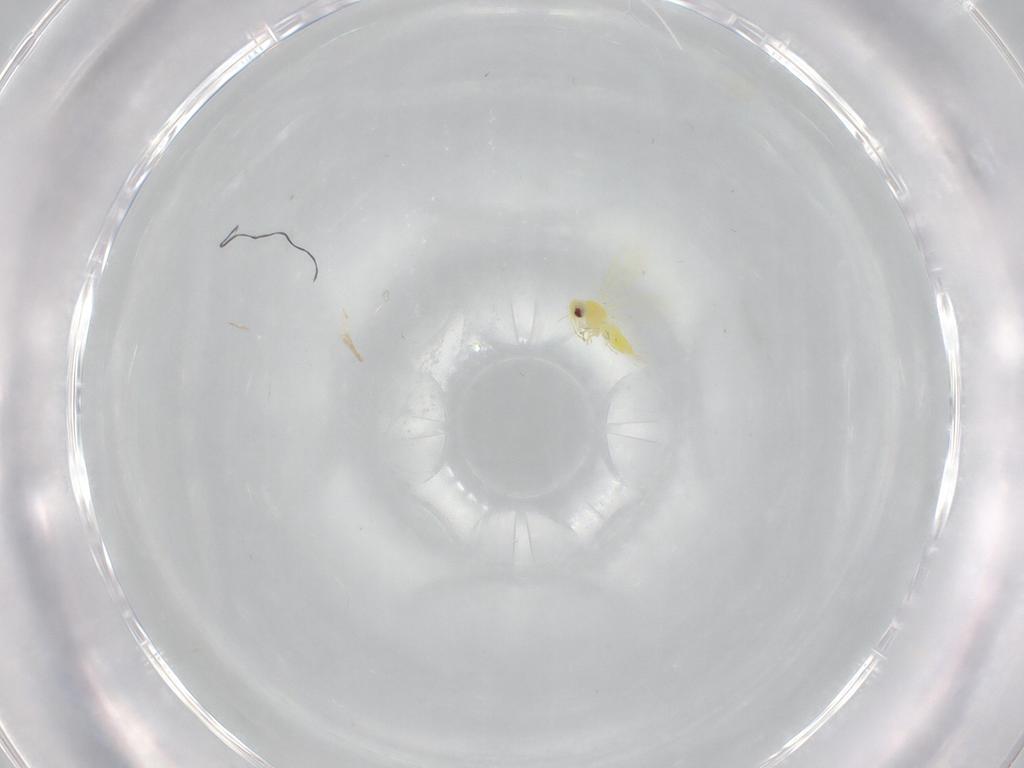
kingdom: Animalia
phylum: Arthropoda
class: Insecta
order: Hemiptera
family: Aleyrodidae
